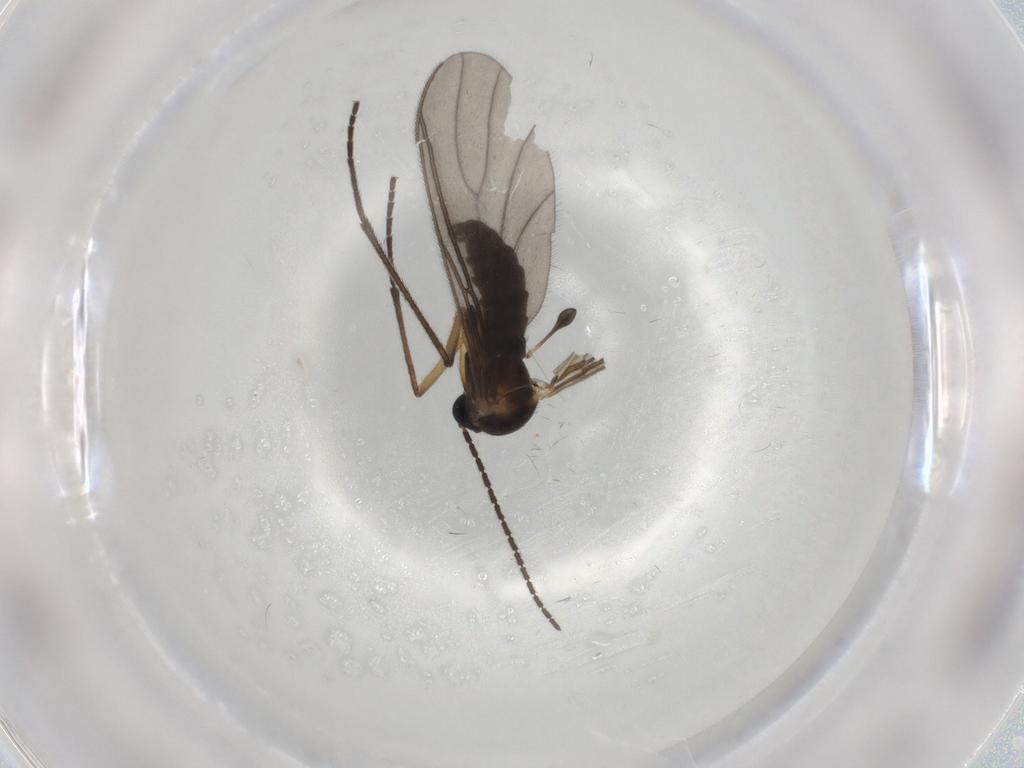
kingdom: Animalia
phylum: Arthropoda
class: Insecta
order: Diptera
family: Sciaridae
